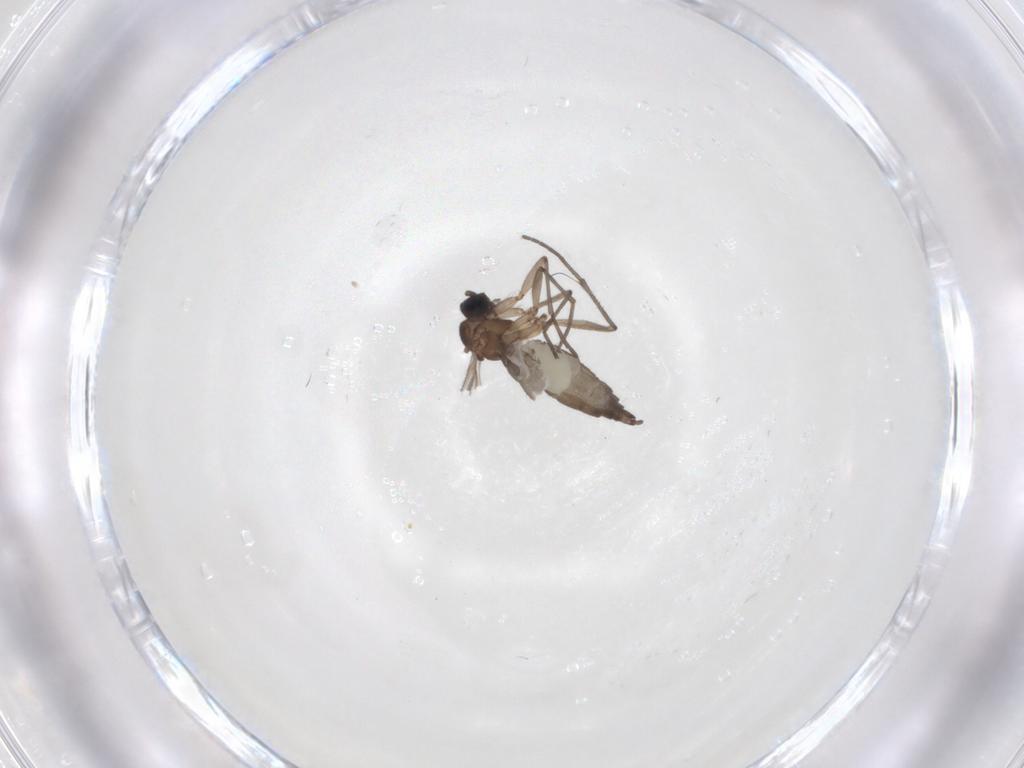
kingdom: Animalia
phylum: Arthropoda
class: Insecta
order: Diptera
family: Sciaridae
